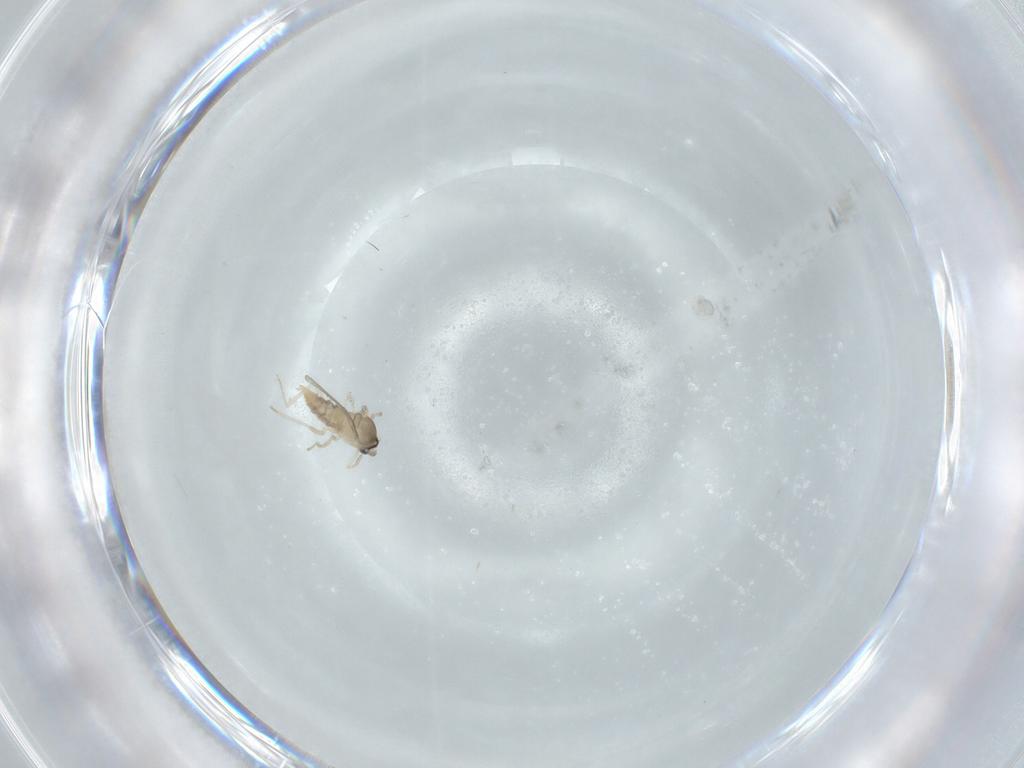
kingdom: Animalia
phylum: Arthropoda
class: Insecta
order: Diptera
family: Cecidomyiidae
